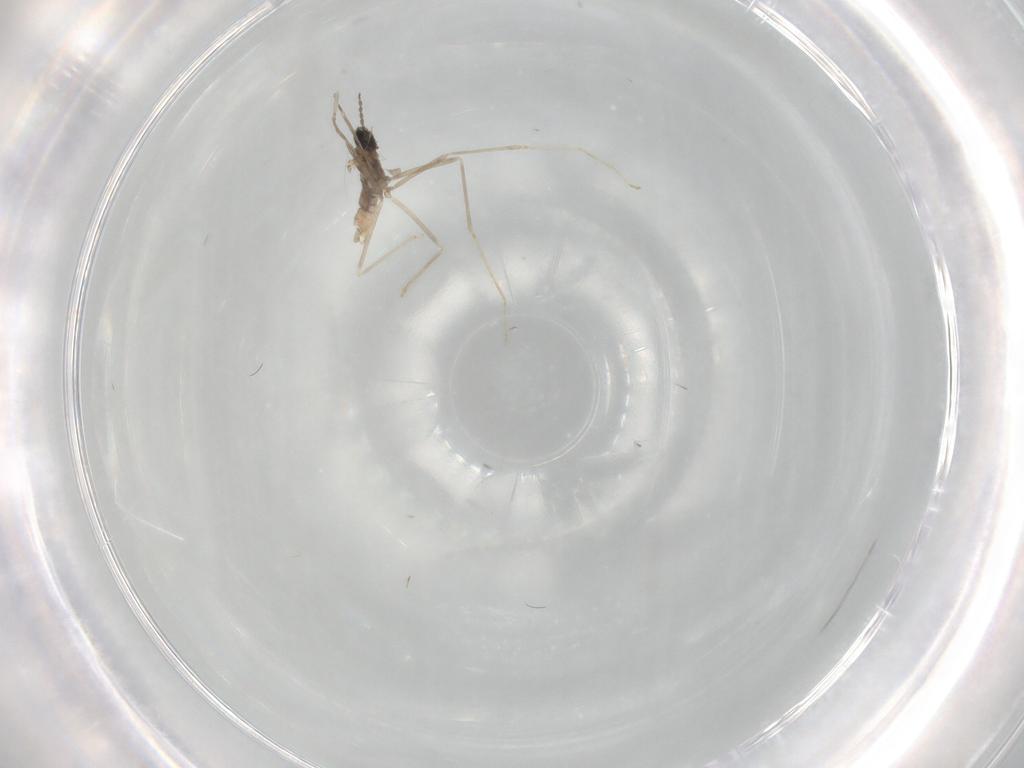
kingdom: Animalia
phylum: Arthropoda
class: Insecta
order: Diptera
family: Cecidomyiidae
